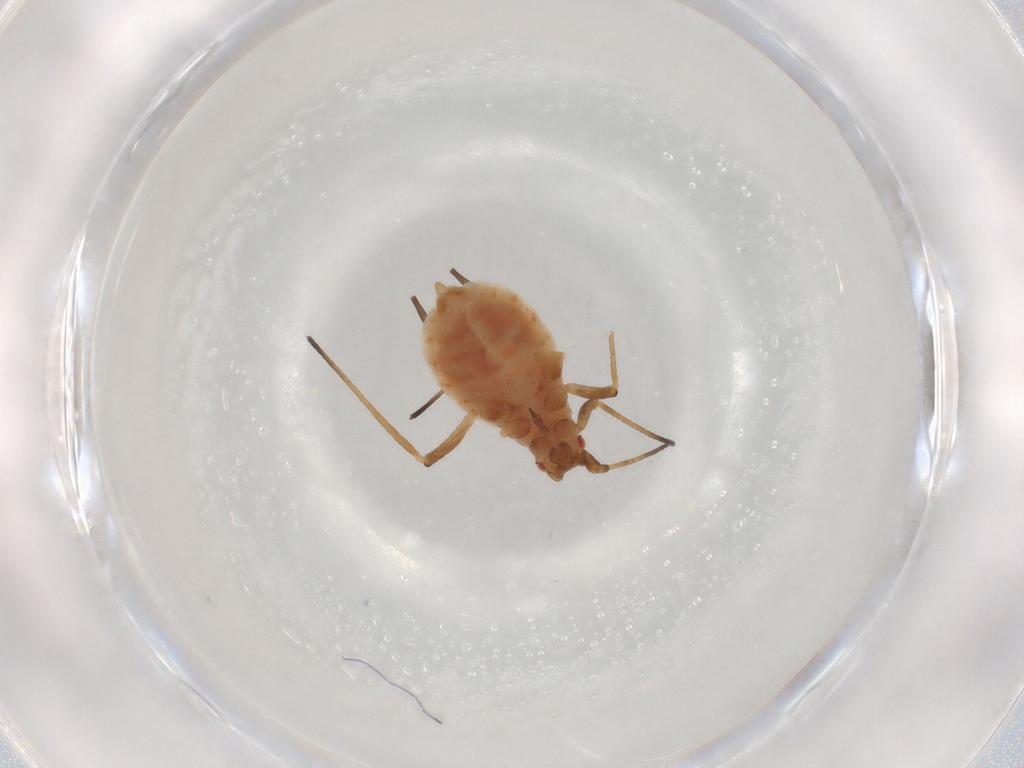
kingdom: Animalia
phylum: Arthropoda
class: Insecta
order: Hemiptera
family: Aphididae
